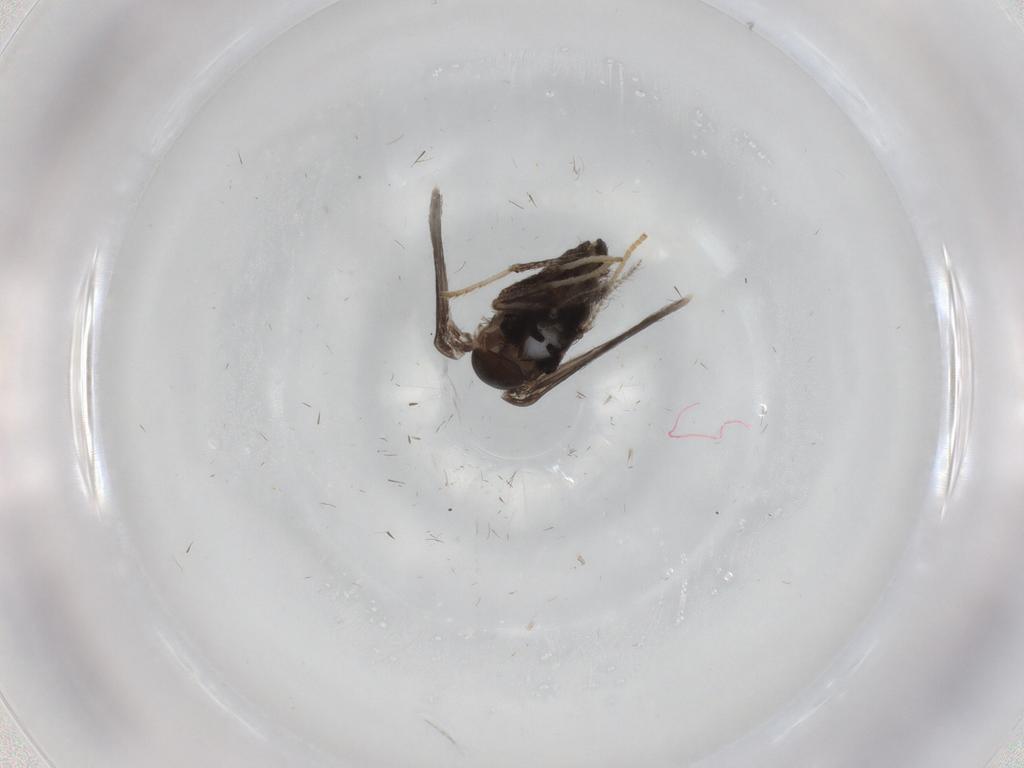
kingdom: Animalia
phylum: Arthropoda
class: Insecta
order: Diptera
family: Psychodidae
